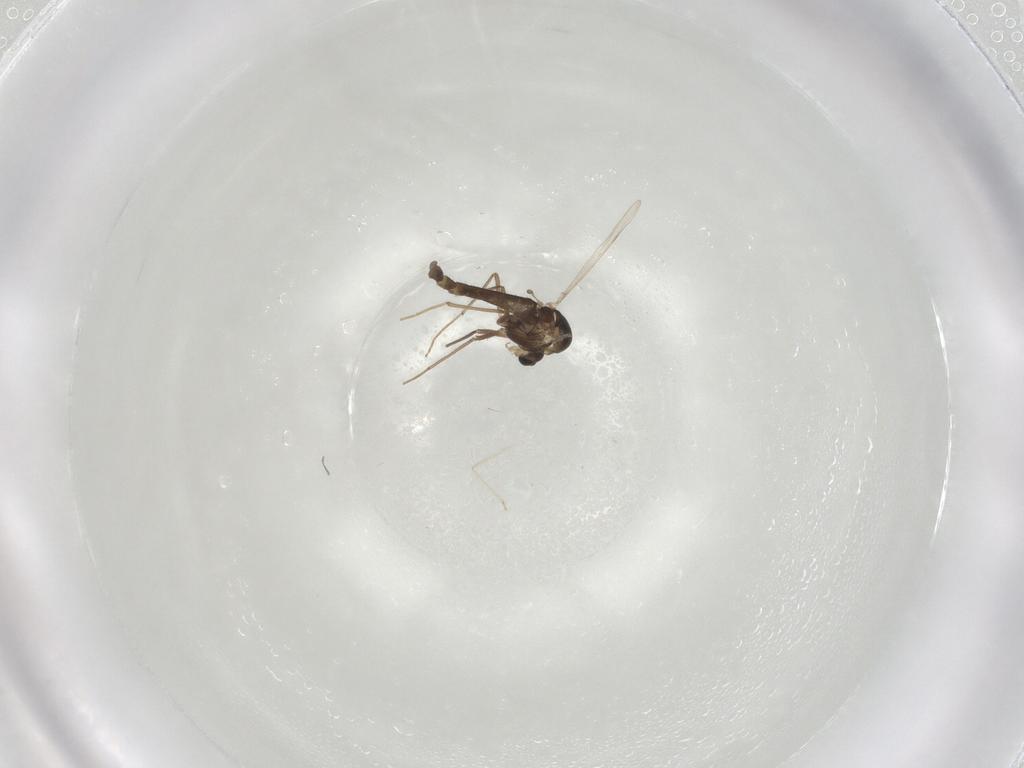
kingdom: Animalia
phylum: Arthropoda
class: Insecta
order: Diptera
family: Chironomidae
